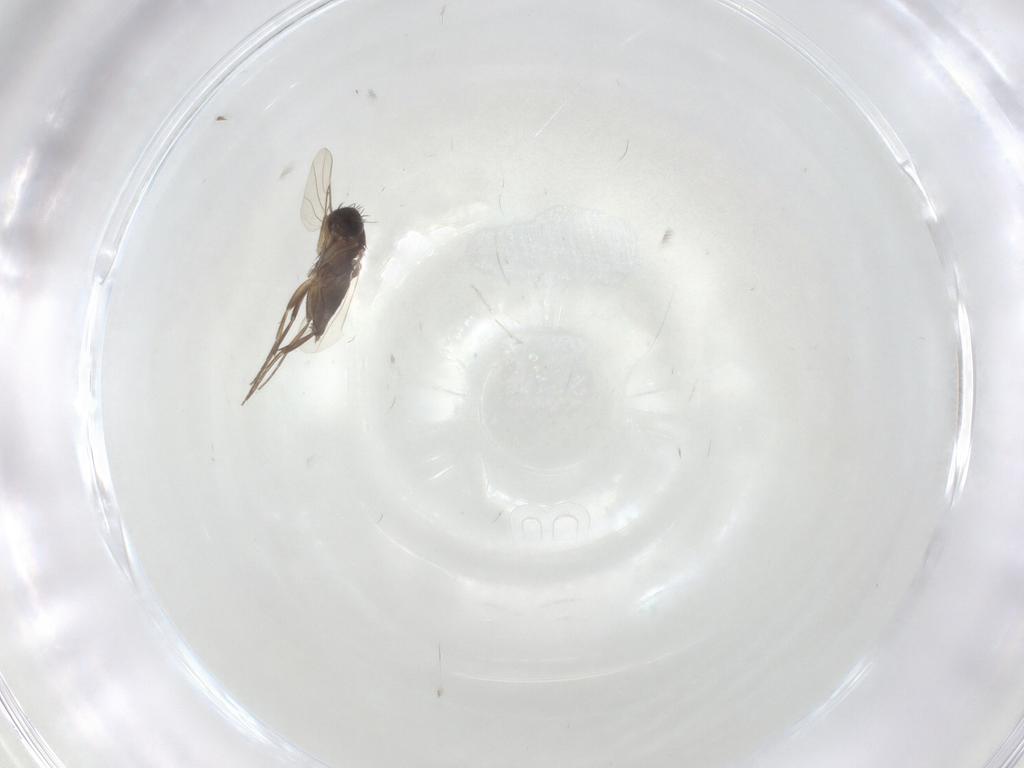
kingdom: Animalia
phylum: Arthropoda
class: Insecta
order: Diptera
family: Phoridae
